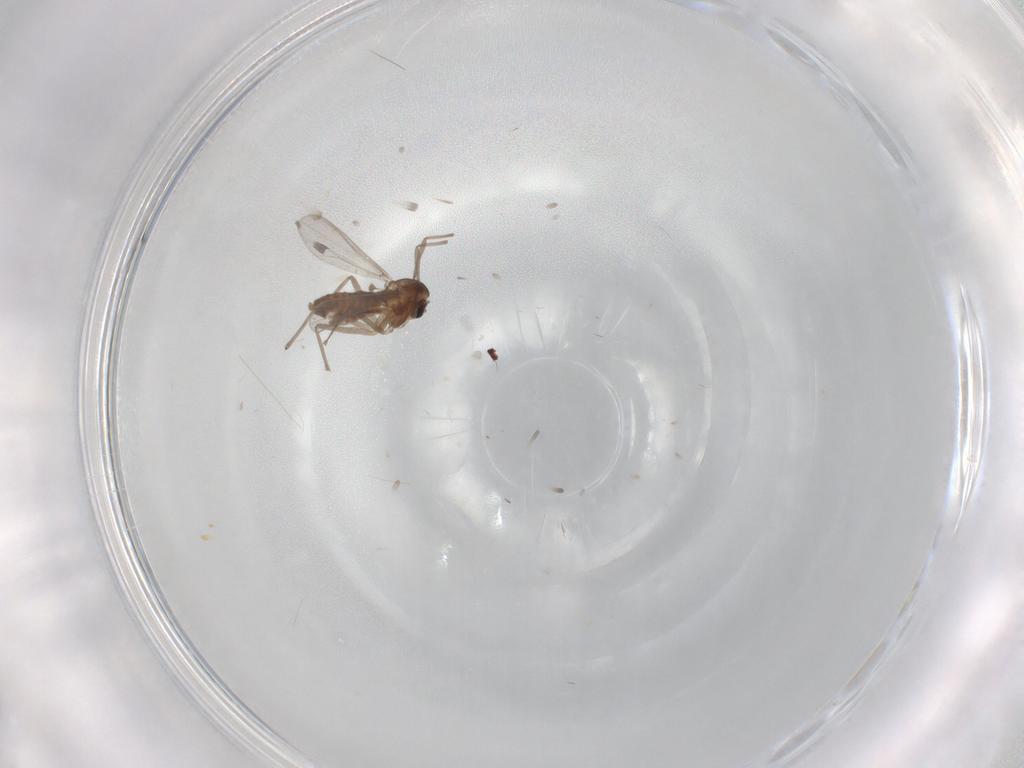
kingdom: Animalia
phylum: Arthropoda
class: Insecta
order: Diptera
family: Chironomidae
